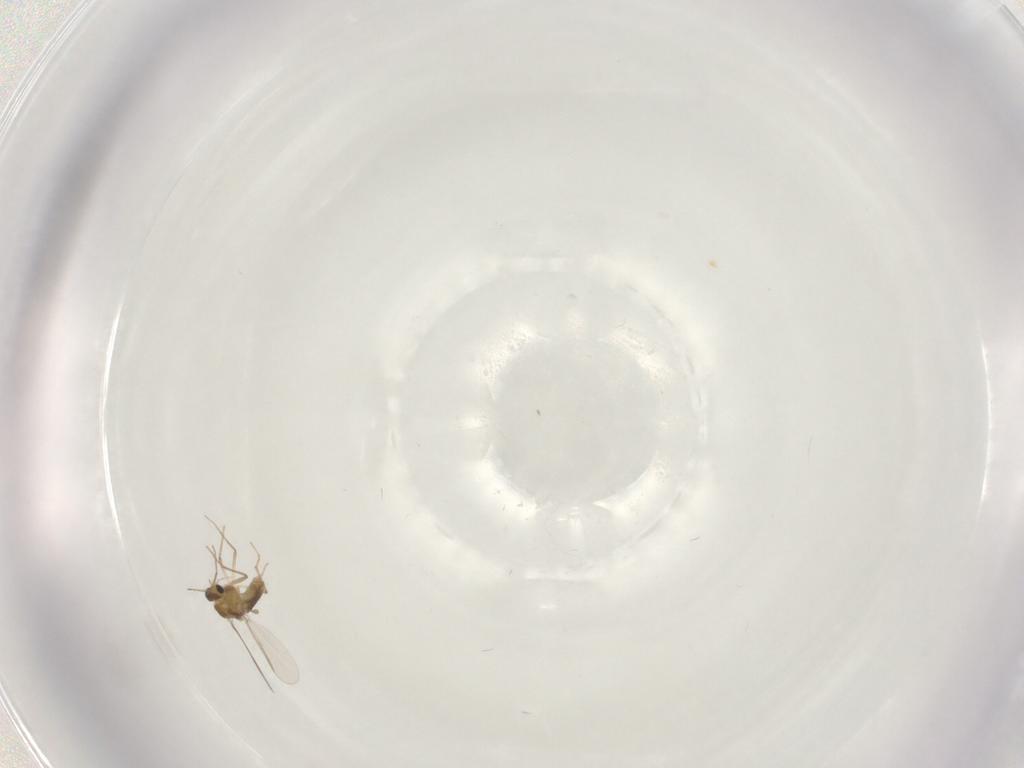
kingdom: Animalia
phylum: Arthropoda
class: Insecta
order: Diptera
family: Chironomidae
